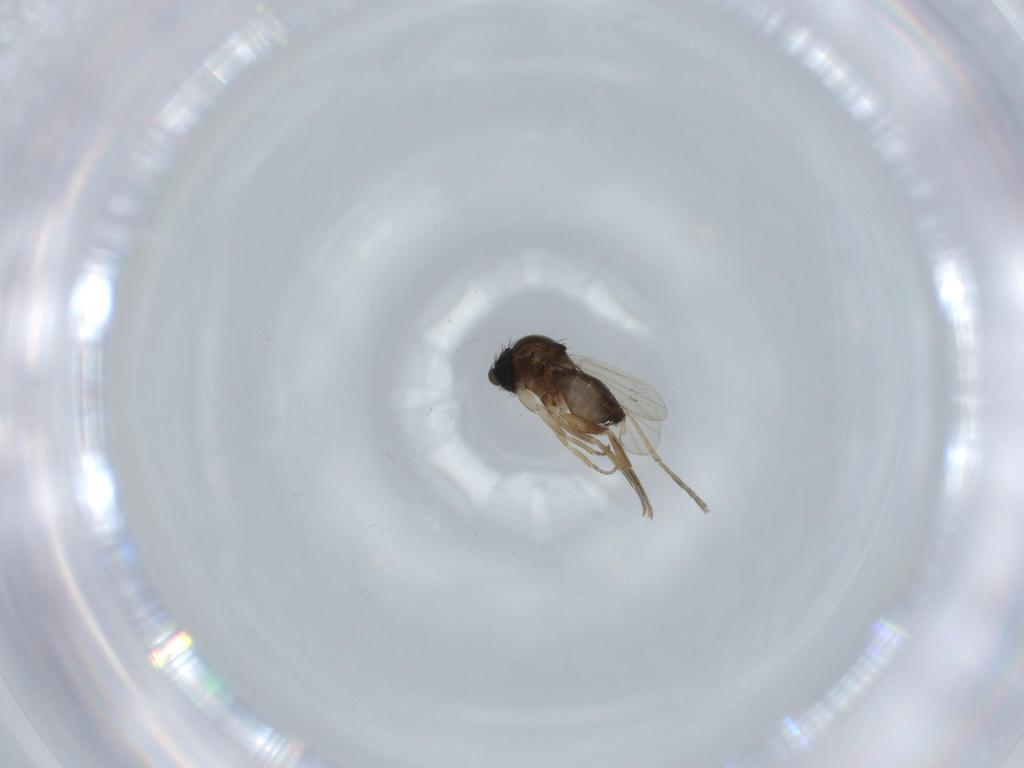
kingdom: Animalia
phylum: Arthropoda
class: Insecta
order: Diptera
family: Phoridae
